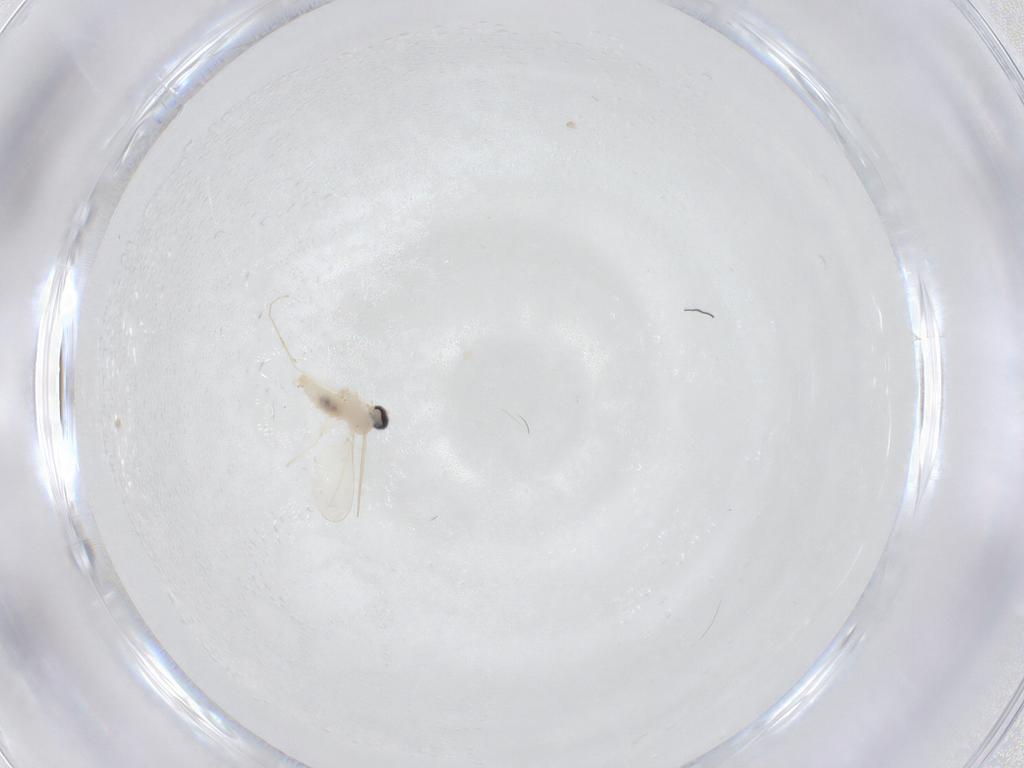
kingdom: Animalia
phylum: Arthropoda
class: Insecta
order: Diptera
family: Cecidomyiidae
